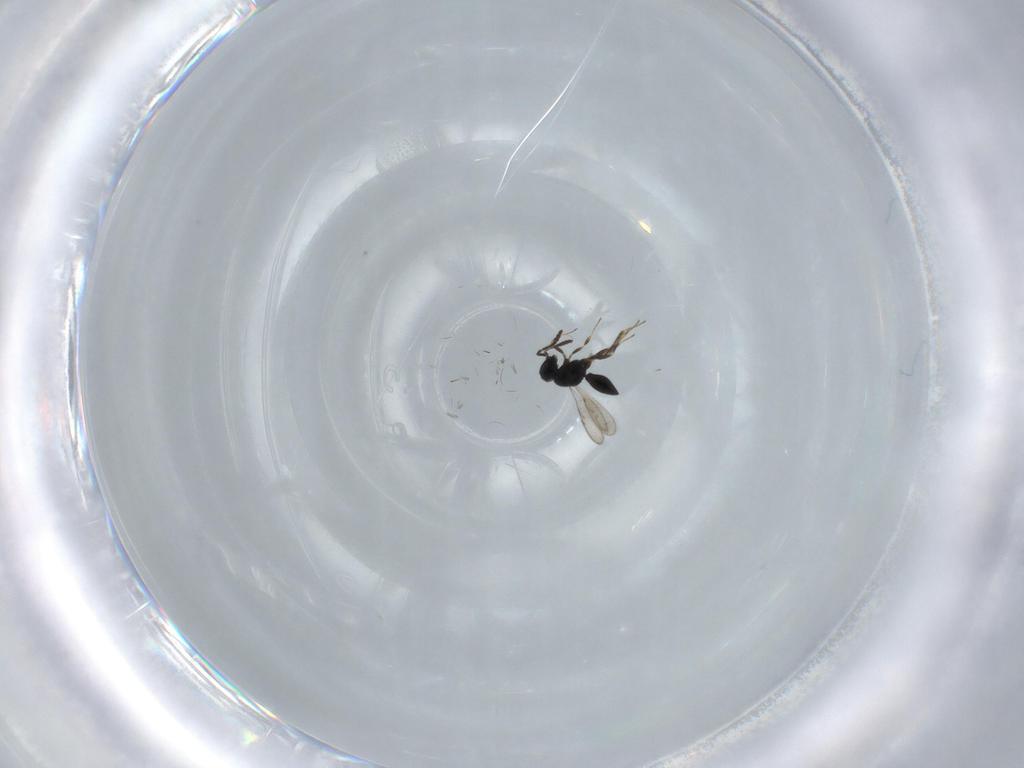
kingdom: Animalia
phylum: Arthropoda
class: Insecta
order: Hymenoptera
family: Scelionidae
